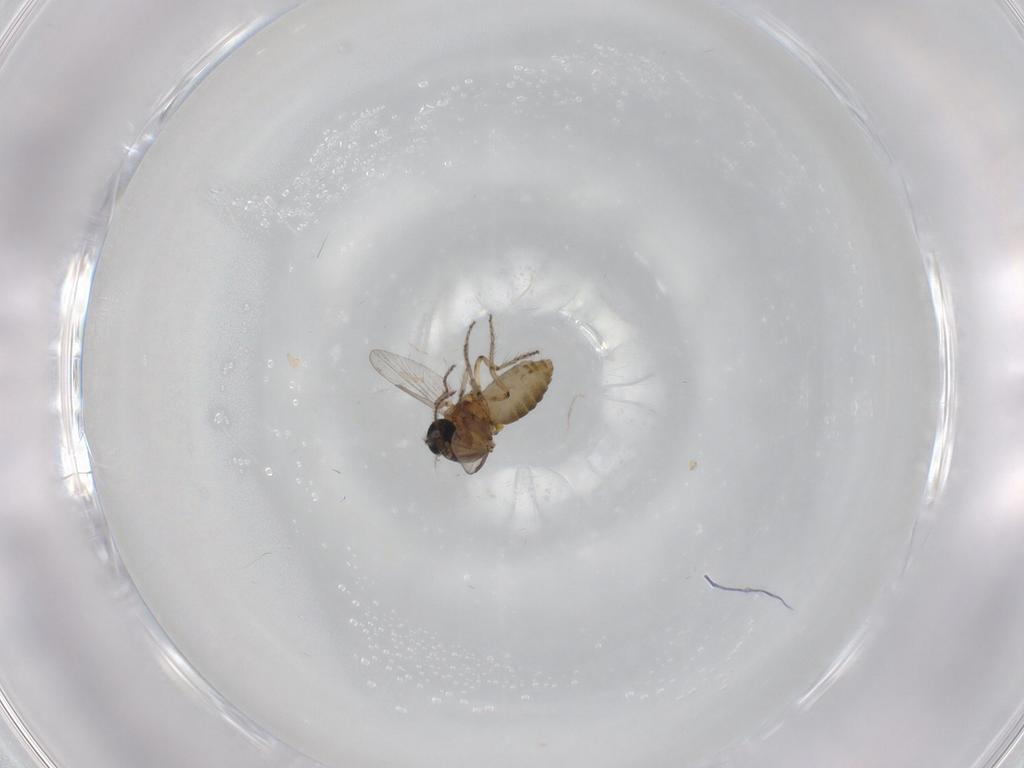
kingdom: Animalia
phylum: Arthropoda
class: Insecta
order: Diptera
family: Ceratopogonidae
